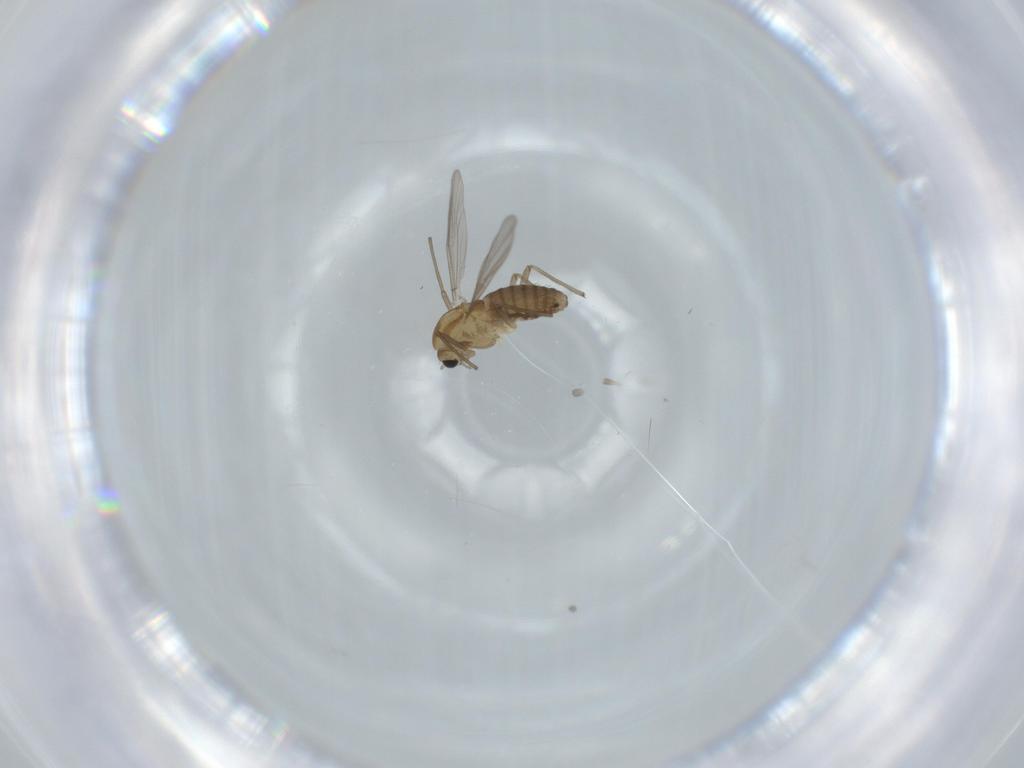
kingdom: Animalia
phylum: Arthropoda
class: Insecta
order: Diptera
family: Chironomidae
